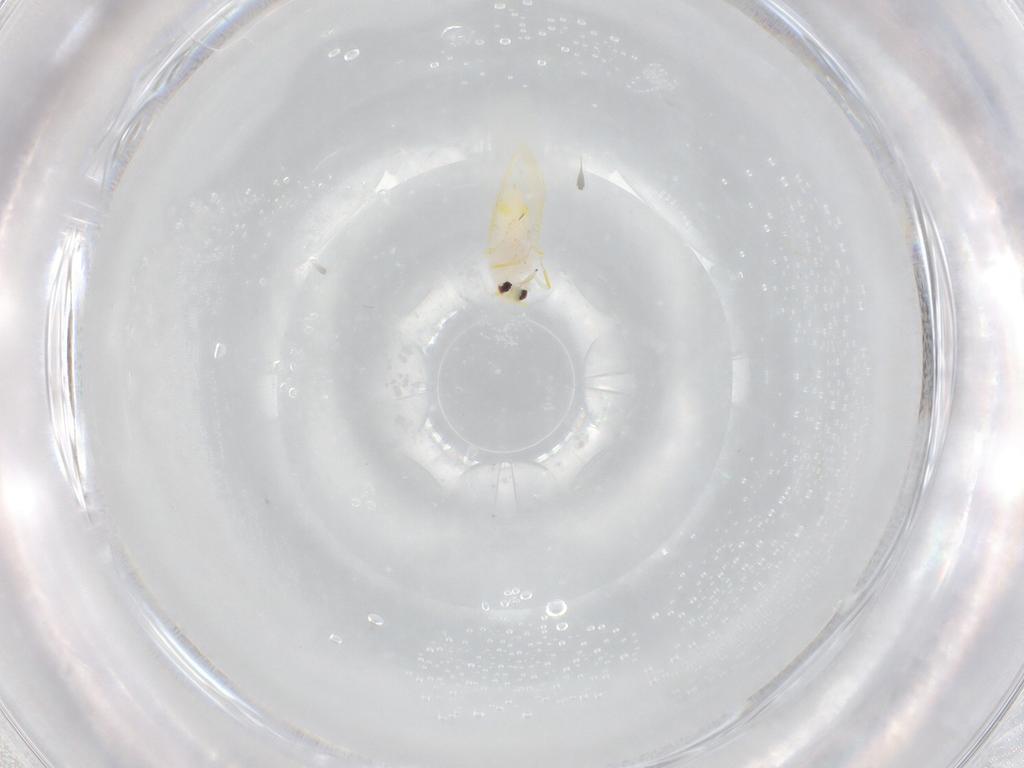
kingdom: Animalia
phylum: Arthropoda
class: Insecta
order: Hemiptera
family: Aleyrodidae
